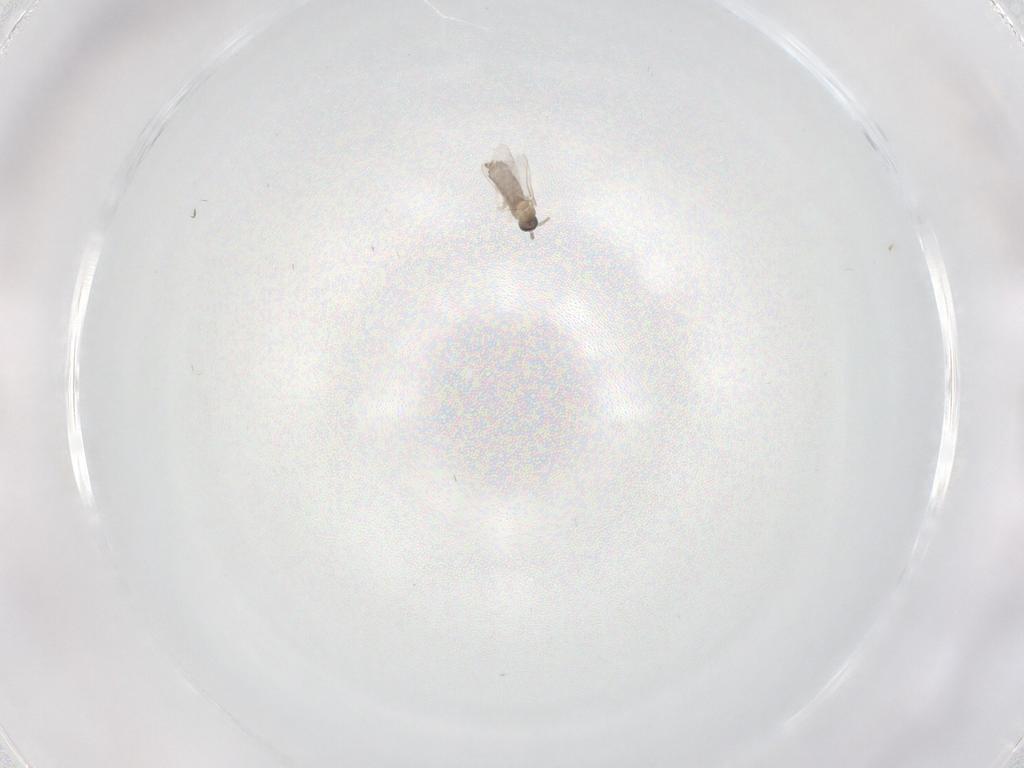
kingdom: Animalia
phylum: Arthropoda
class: Insecta
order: Diptera
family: Cecidomyiidae
